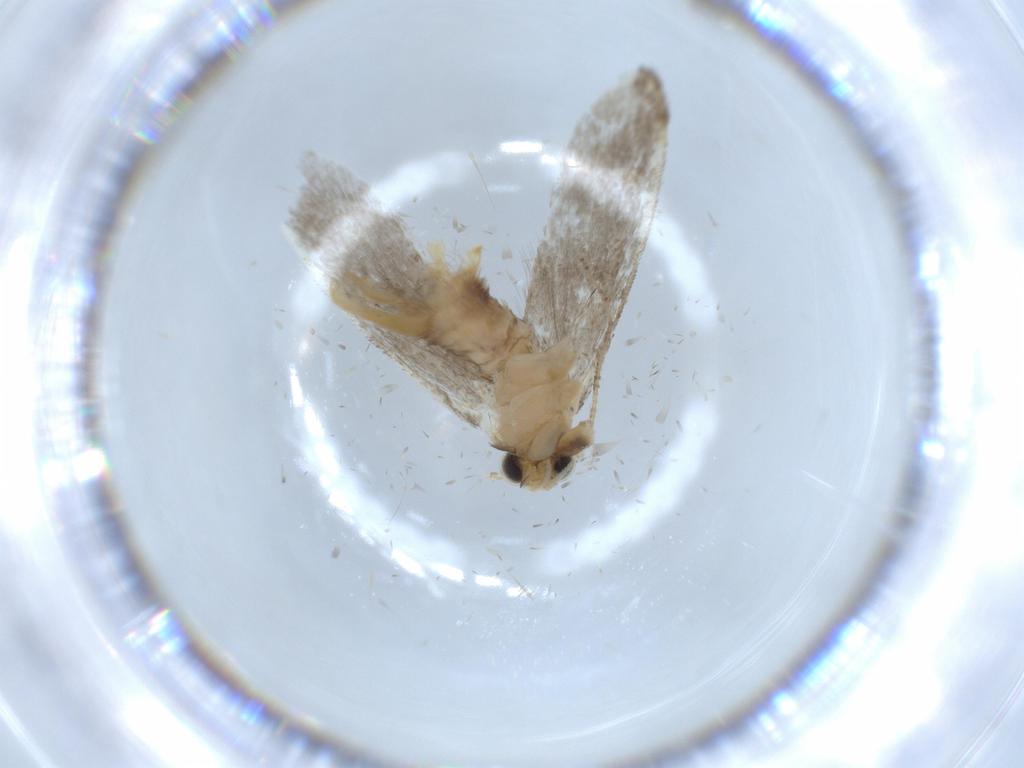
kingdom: Animalia
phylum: Arthropoda
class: Insecta
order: Lepidoptera
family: Tineidae
